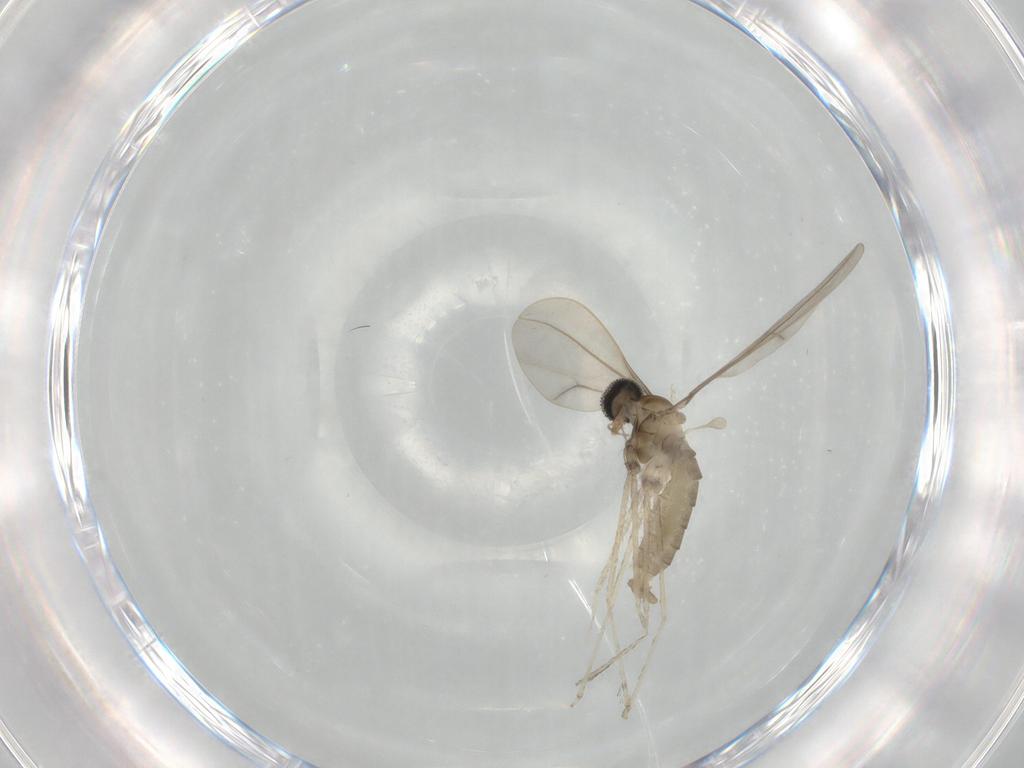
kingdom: Animalia
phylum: Arthropoda
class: Insecta
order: Diptera
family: Cecidomyiidae
